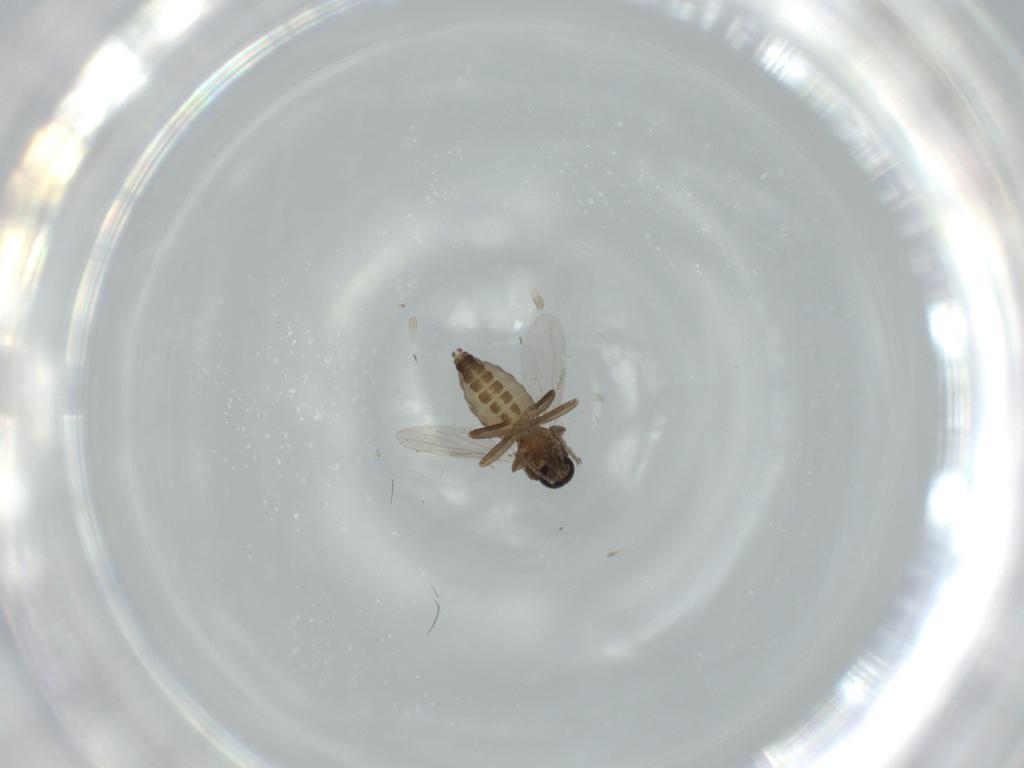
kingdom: Animalia
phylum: Arthropoda
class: Insecta
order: Diptera
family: Ceratopogonidae
